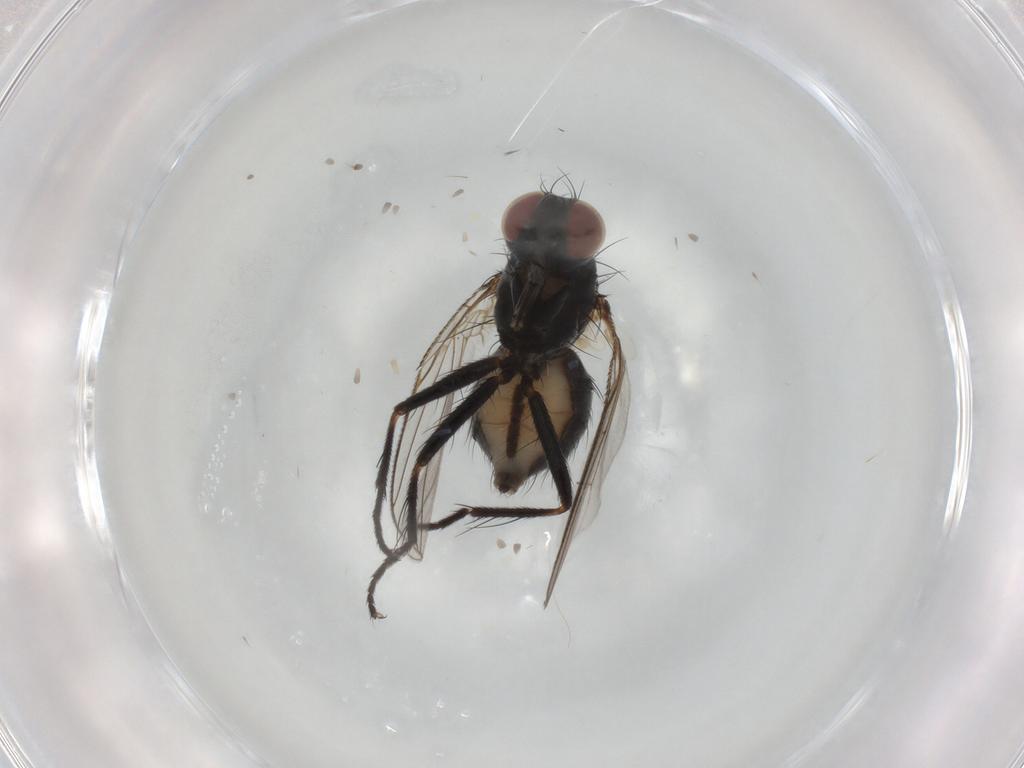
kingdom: Animalia
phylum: Arthropoda
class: Insecta
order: Diptera
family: Muscidae
